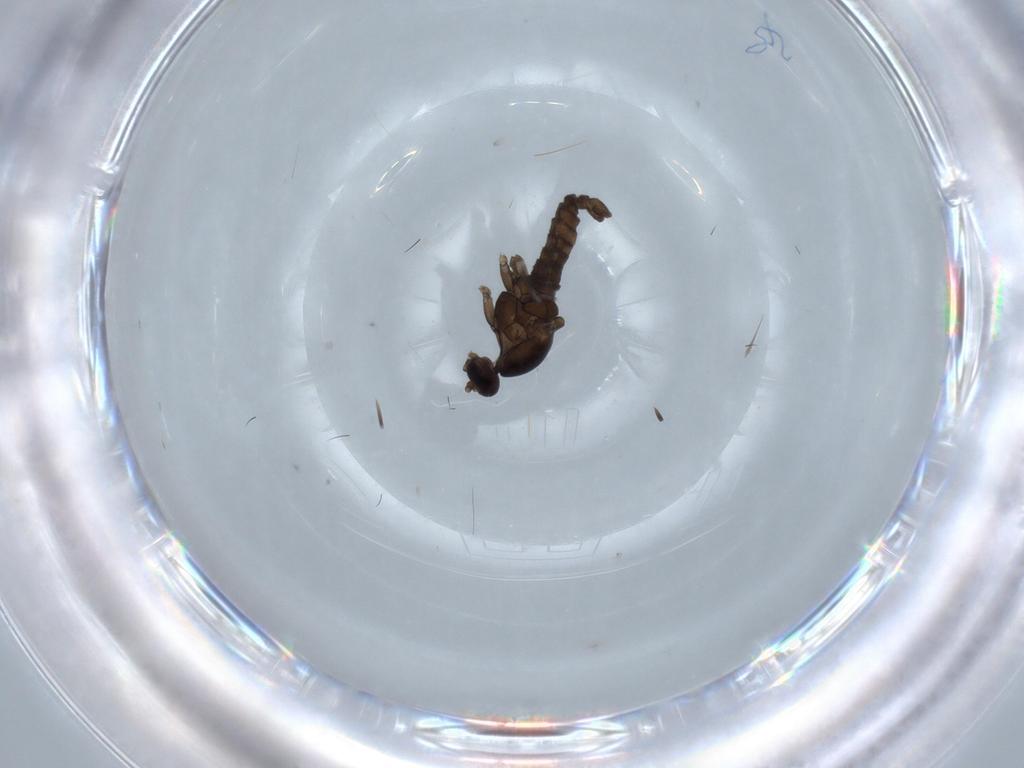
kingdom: Animalia
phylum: Arthropoda
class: Insecta
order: Diptera
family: Cecidomyiidae
